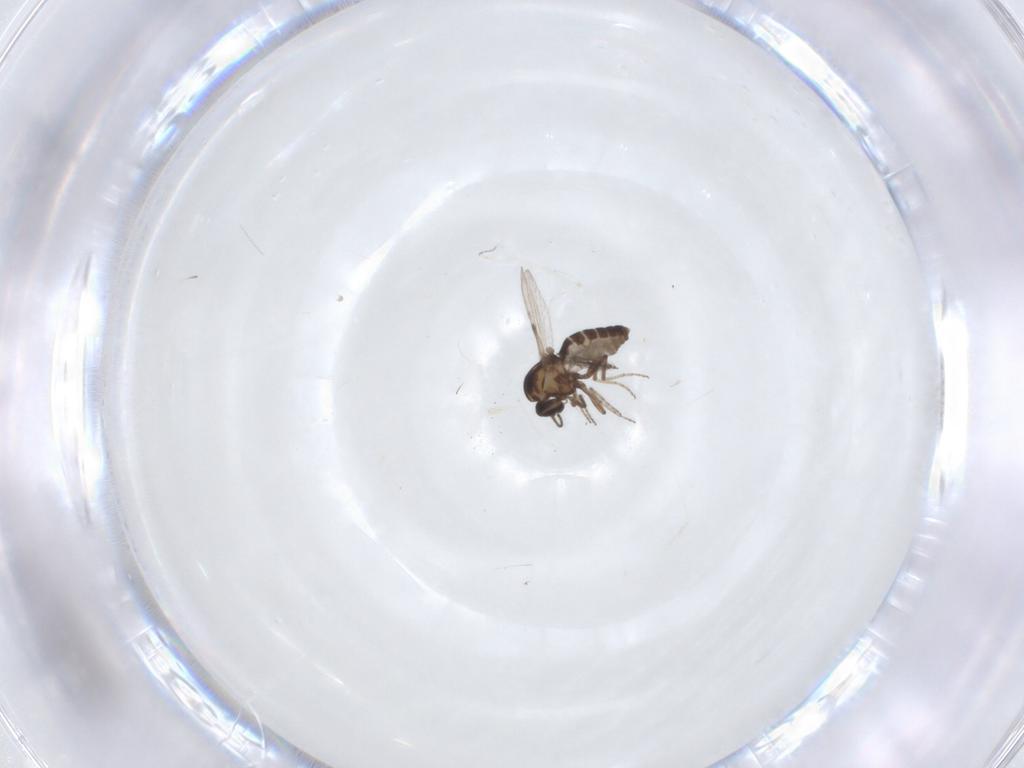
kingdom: Animalia
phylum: Arthropoda
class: Insecta
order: Diptera
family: Ceratopogonidae
